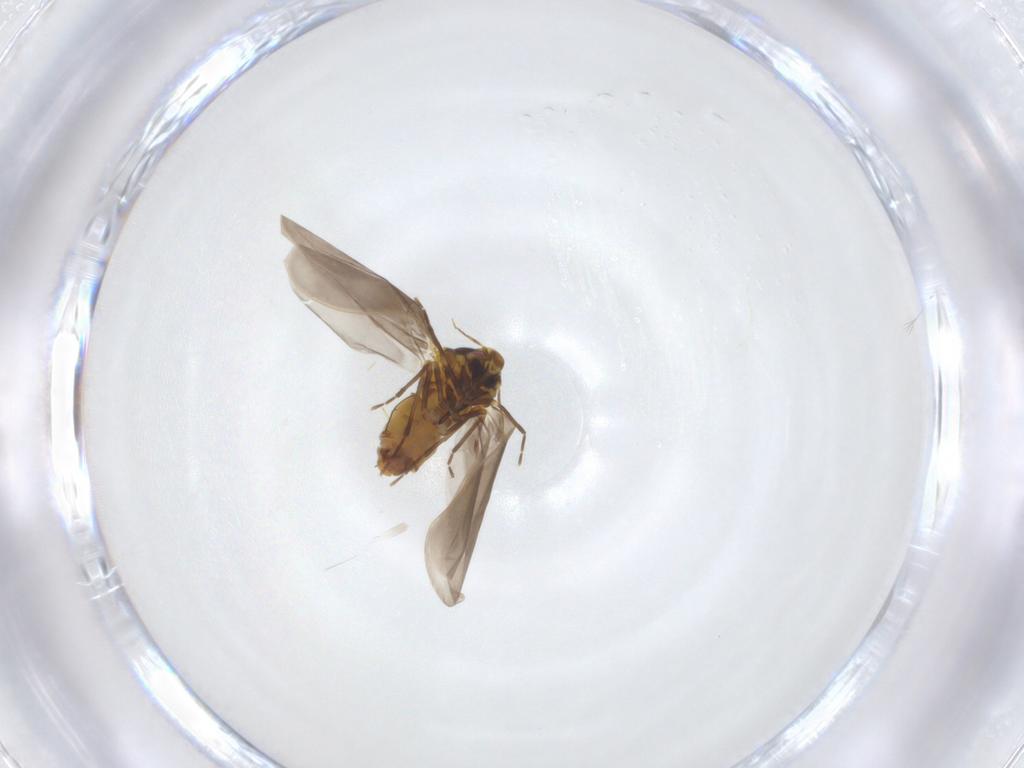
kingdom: Animalia
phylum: Arthropoda
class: Insecta
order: Hemiptera
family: Aleyrodidae
